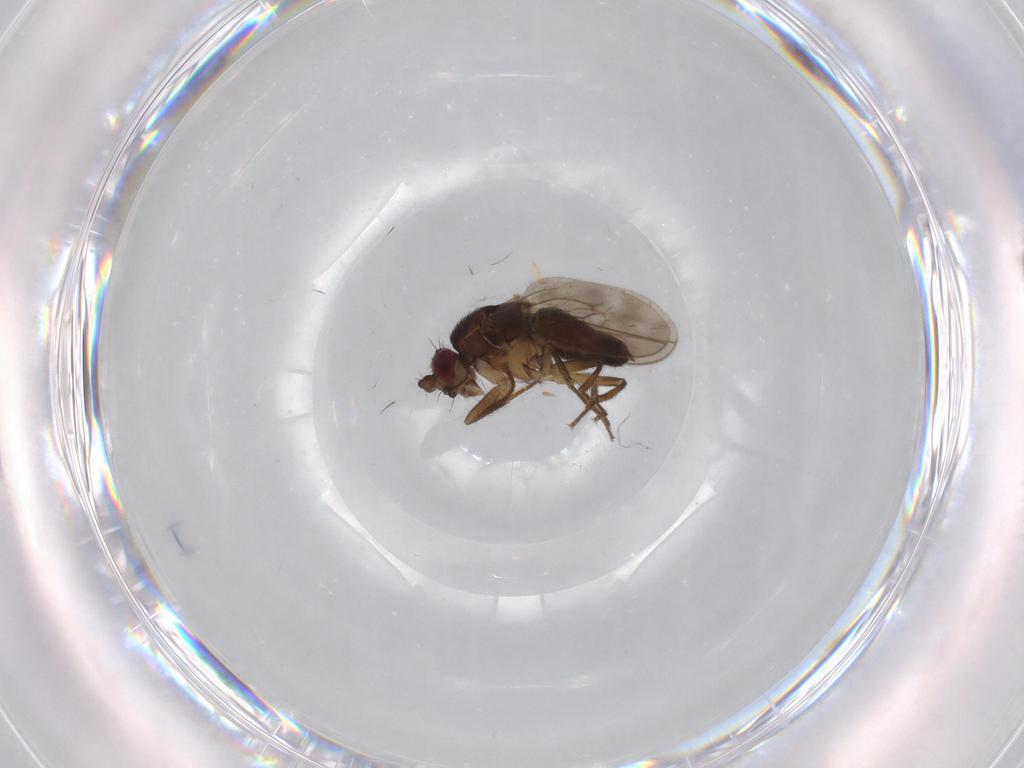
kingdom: Animalia
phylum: Arthropoda
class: Insecta
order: Diptera
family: Sphaeroceridae
